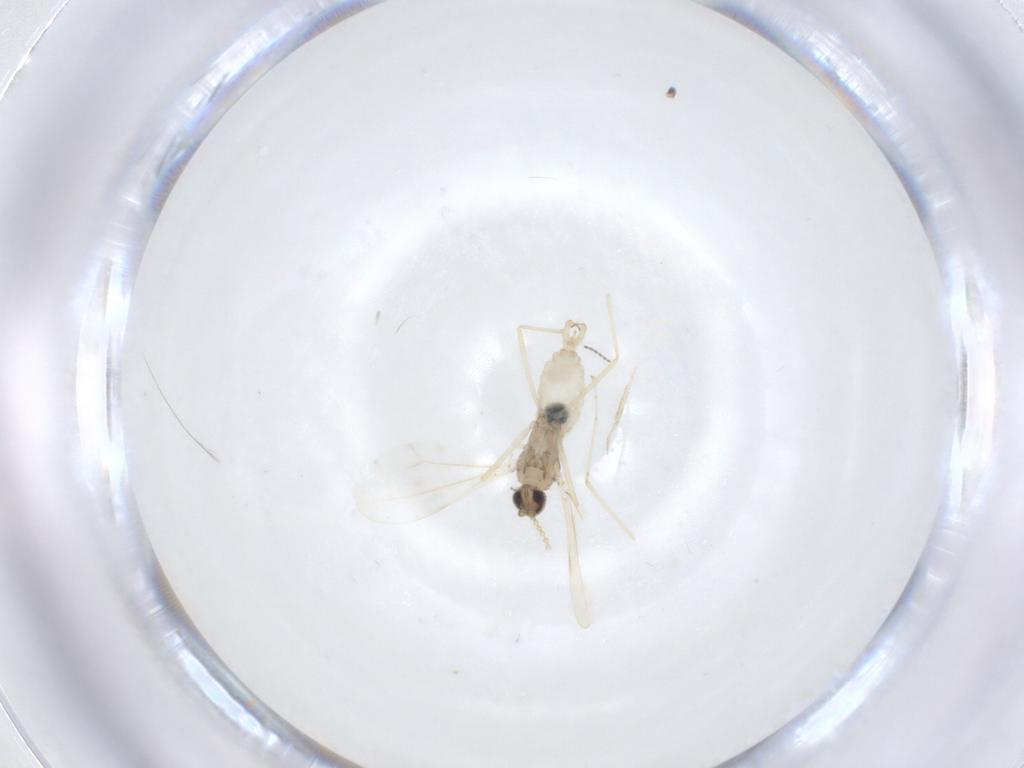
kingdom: Animalia
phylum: Arthropoda
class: Insecta
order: Diptera
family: Cecidomyiidae
